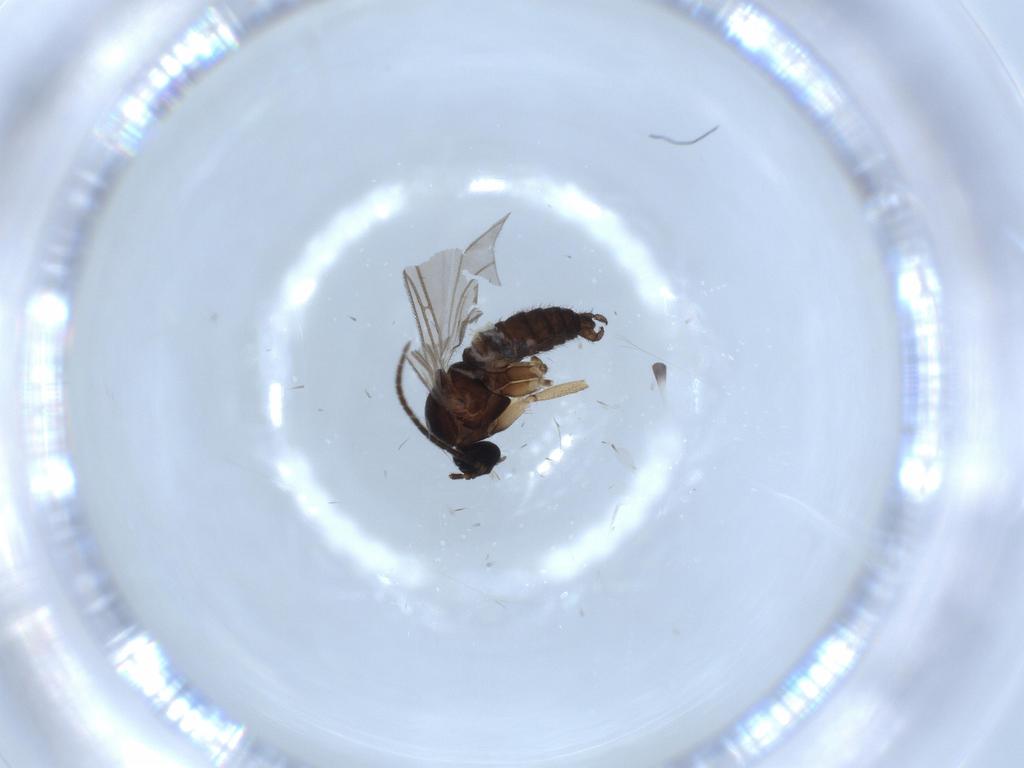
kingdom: Animalia
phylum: Arthropoda
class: Insecta
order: Diptera
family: Sciaridae
